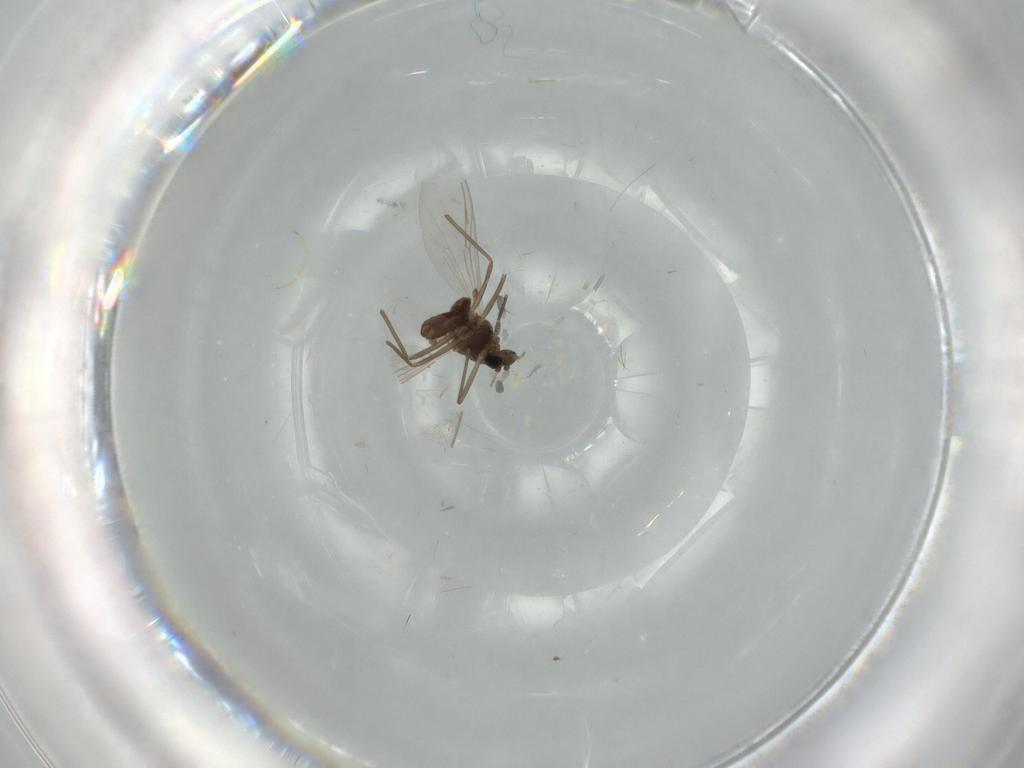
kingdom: Animalia
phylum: Arthropoda
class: Insecta
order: Diptera
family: Chironomidae
